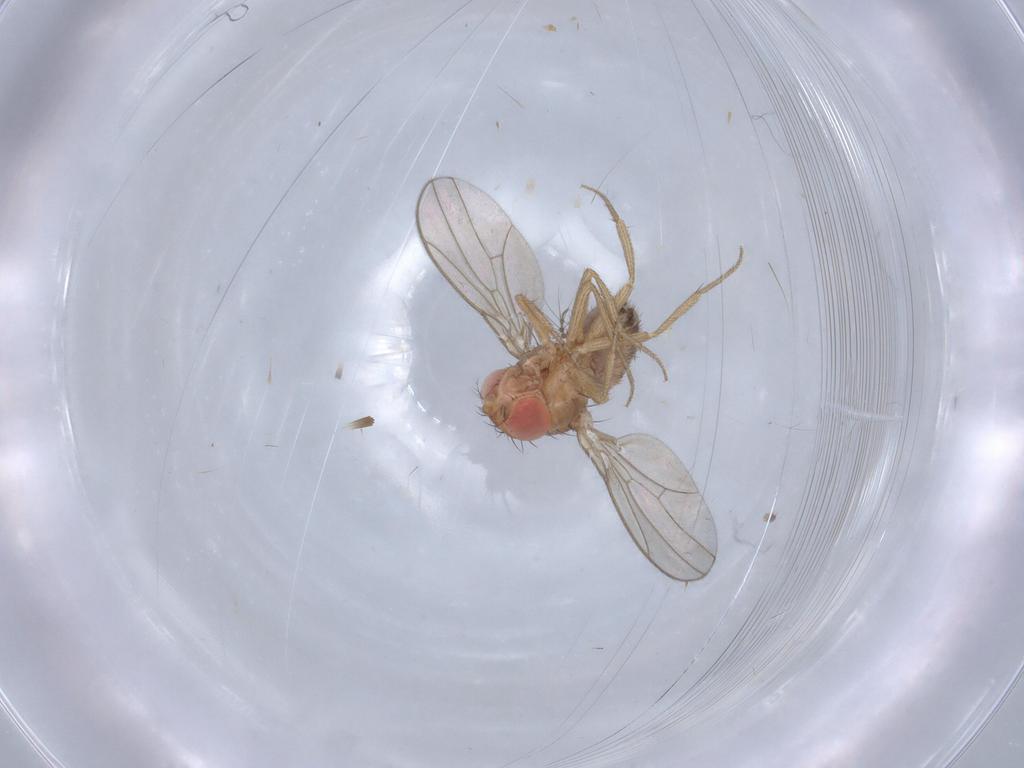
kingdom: Animalia
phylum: Arthropoda
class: Insecta
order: Diptera
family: Drosophilidae
